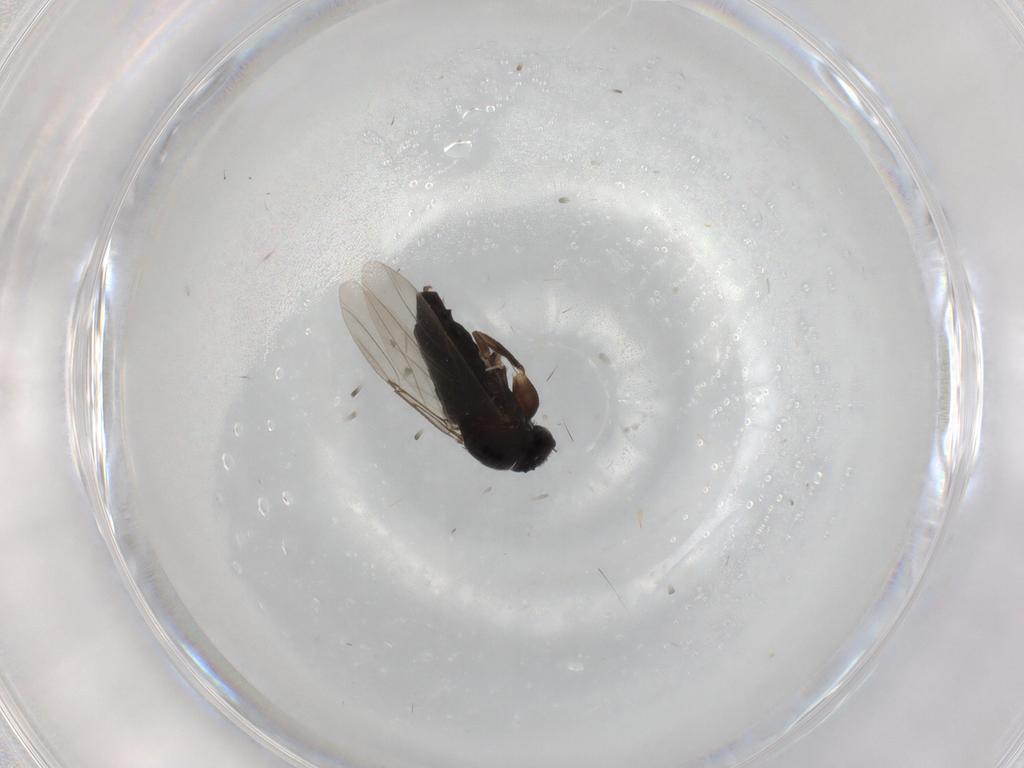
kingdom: Animalia
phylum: Arthropoda
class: Insecta
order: Diptera
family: Phoridae
